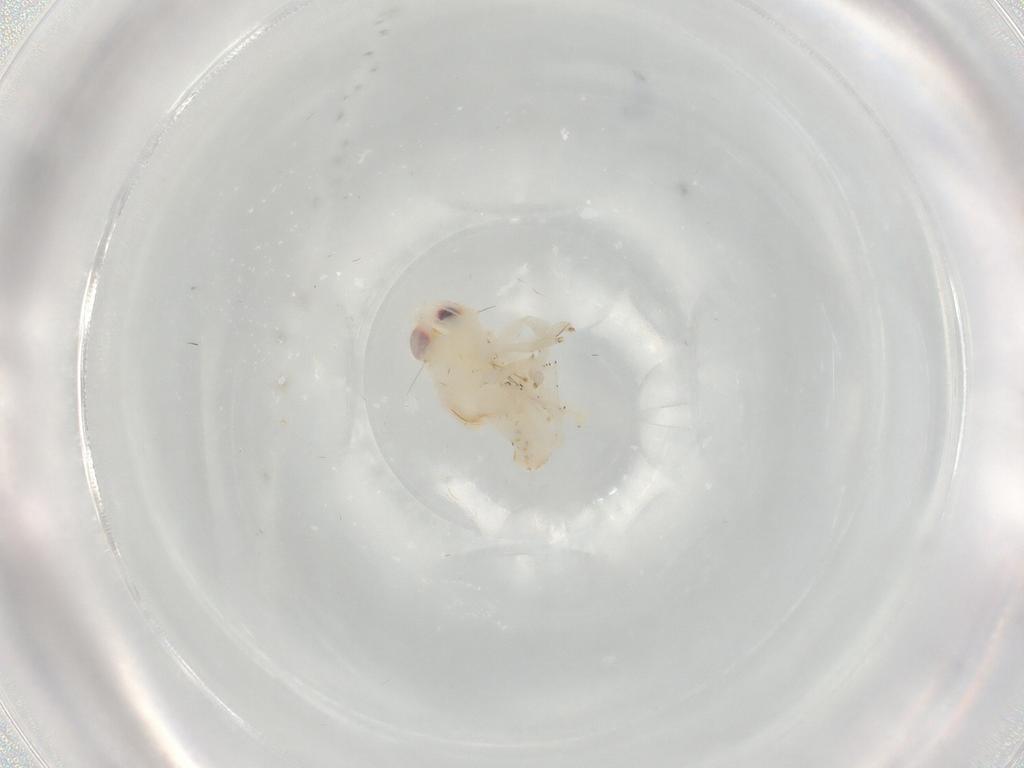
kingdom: Animalia
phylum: Arthropoda
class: Insecta
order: Hemiptera
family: Nogodinidae
